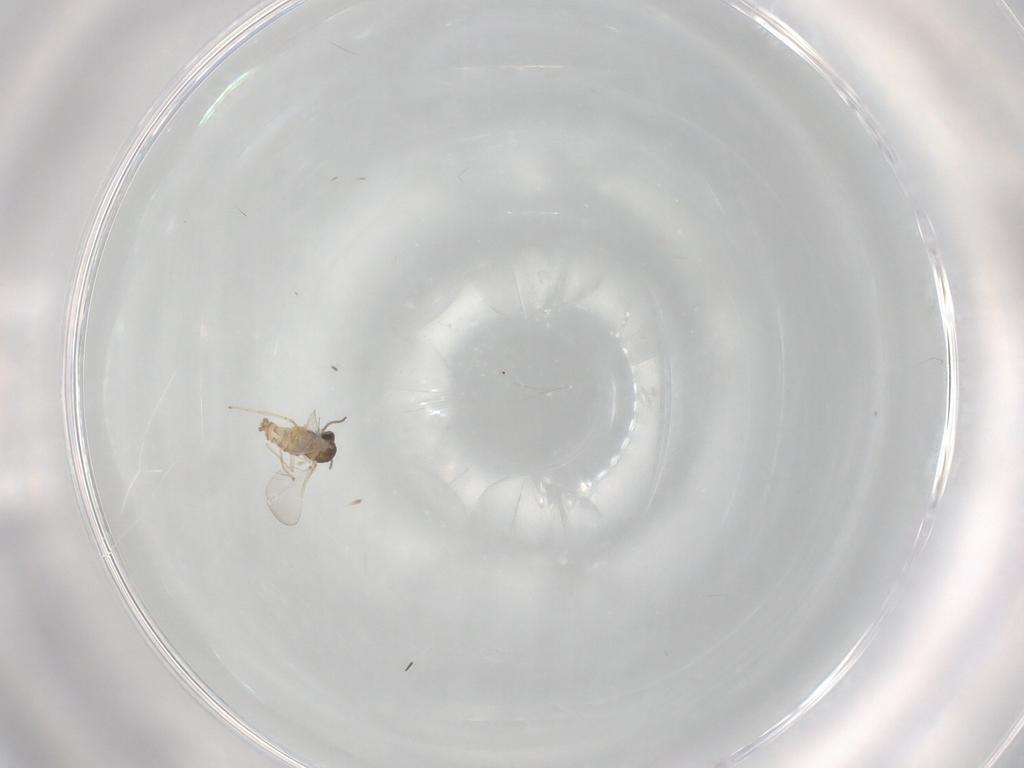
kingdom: Animalia
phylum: Arthropoda
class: Insecta
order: Diptera
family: Cecidomyiidae
